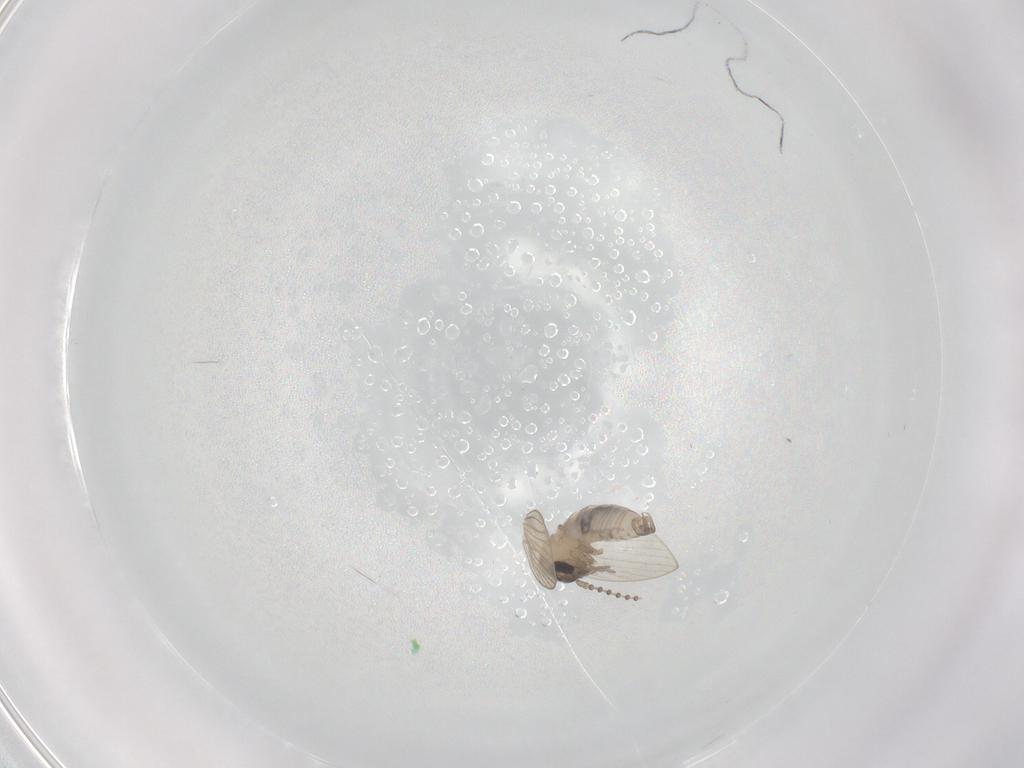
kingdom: Animalia
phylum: Arthropoda
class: Insecta
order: Diptera
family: Psychodidae
